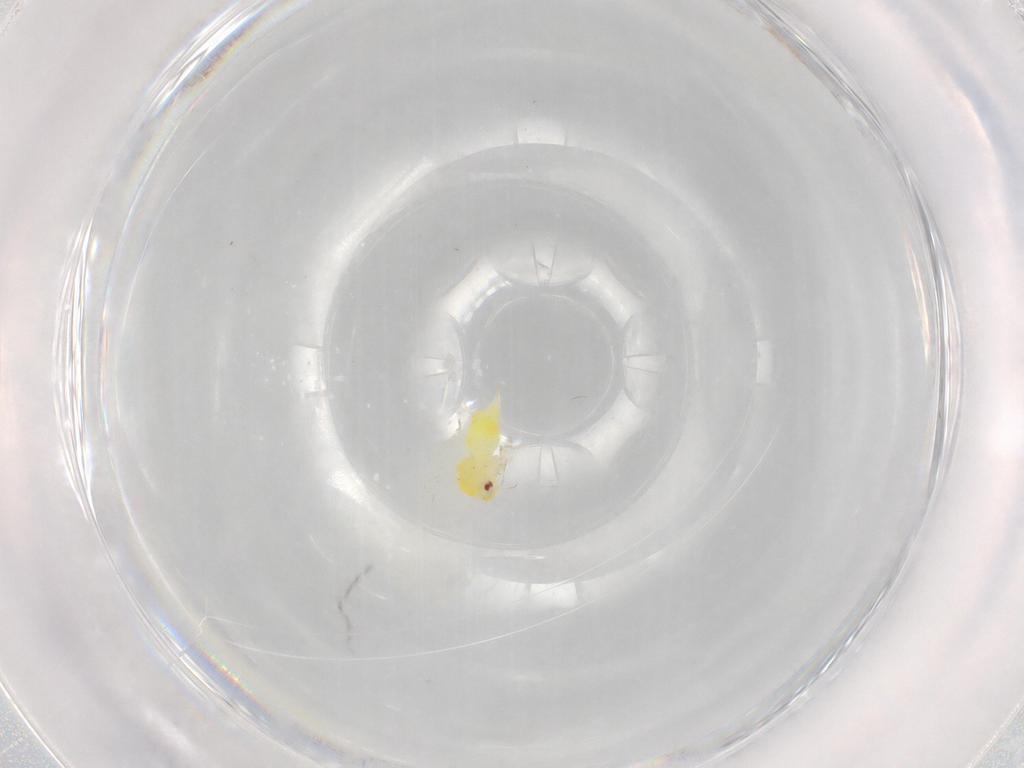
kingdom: Animalia
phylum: Arthropoda
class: Insecta
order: Hemiptera
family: Aleyrodidae
